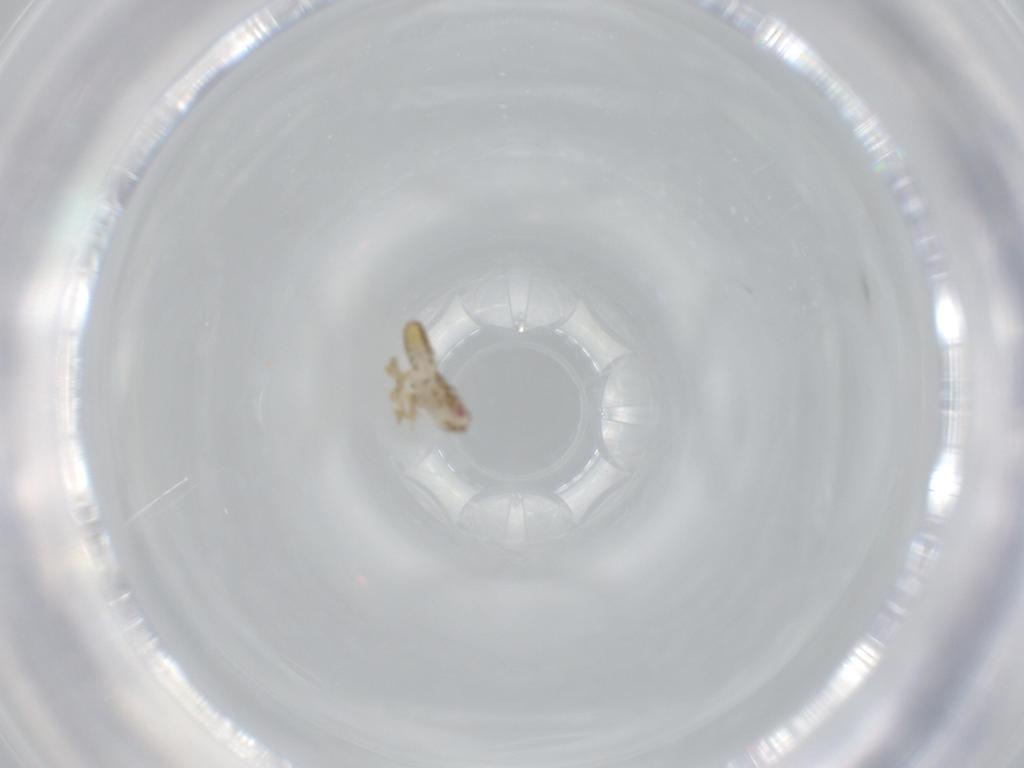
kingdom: Animalia
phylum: Arthropoda
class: Insecta
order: Hemiptera
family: Delphacidae
